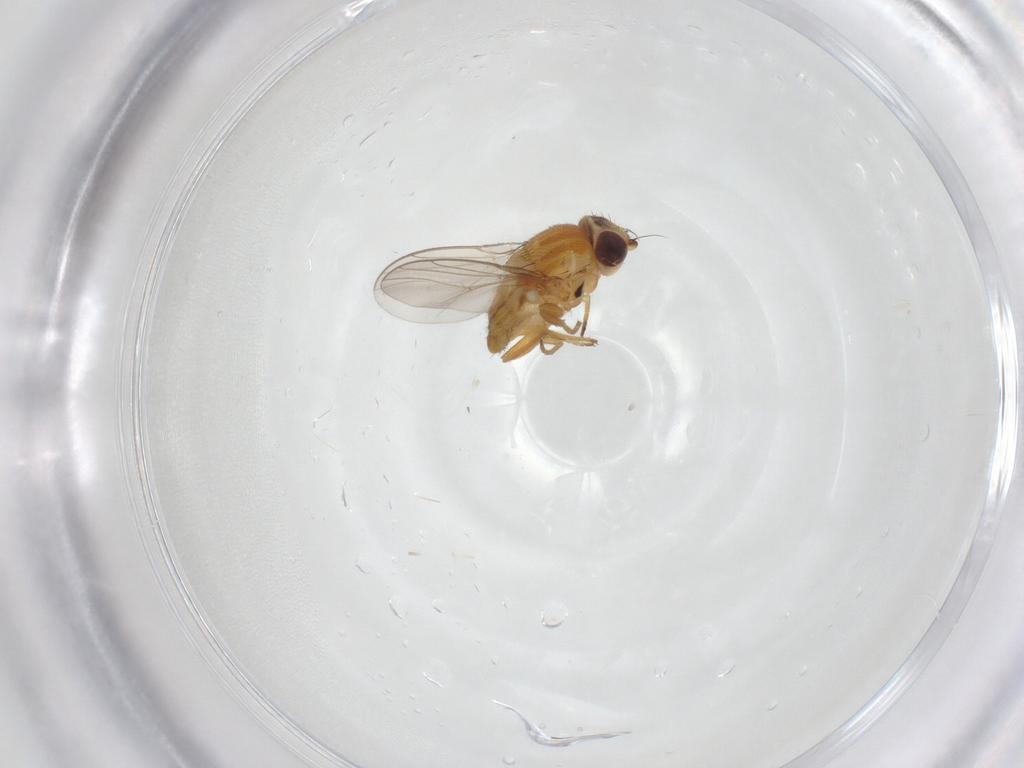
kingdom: Animalia
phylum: Arthropoda
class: Insecta
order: Diptera
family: Chloropidae
